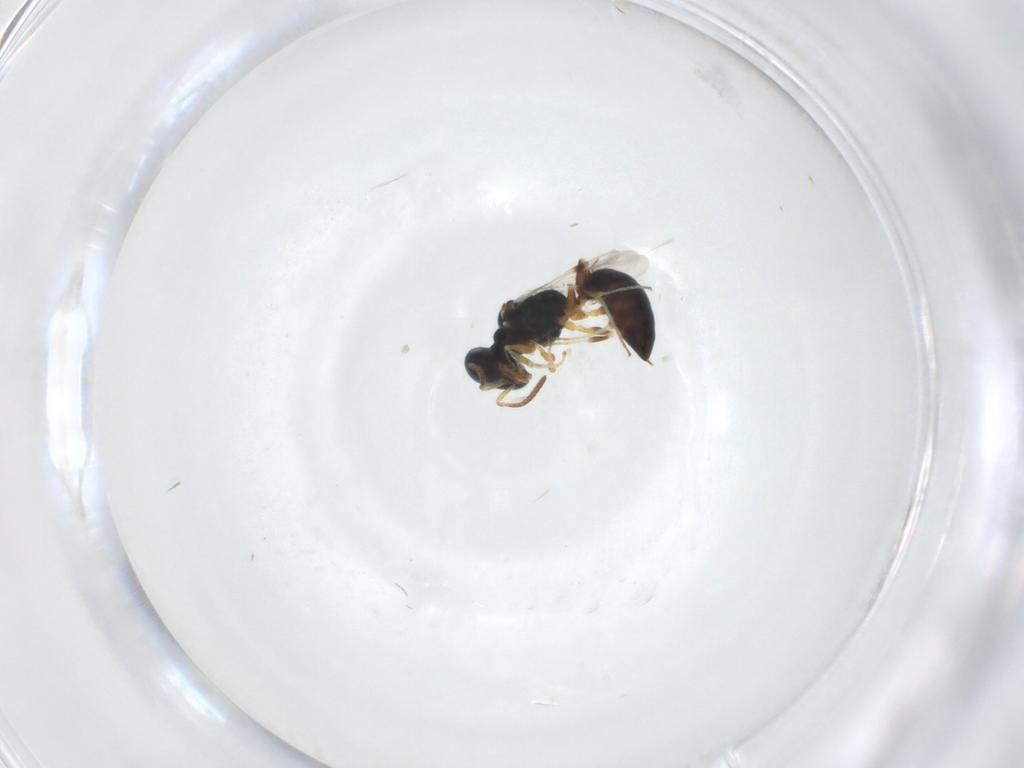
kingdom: Animalia
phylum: Arthropoda
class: Insecta
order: Hymenoptera
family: Pemphredonidae
